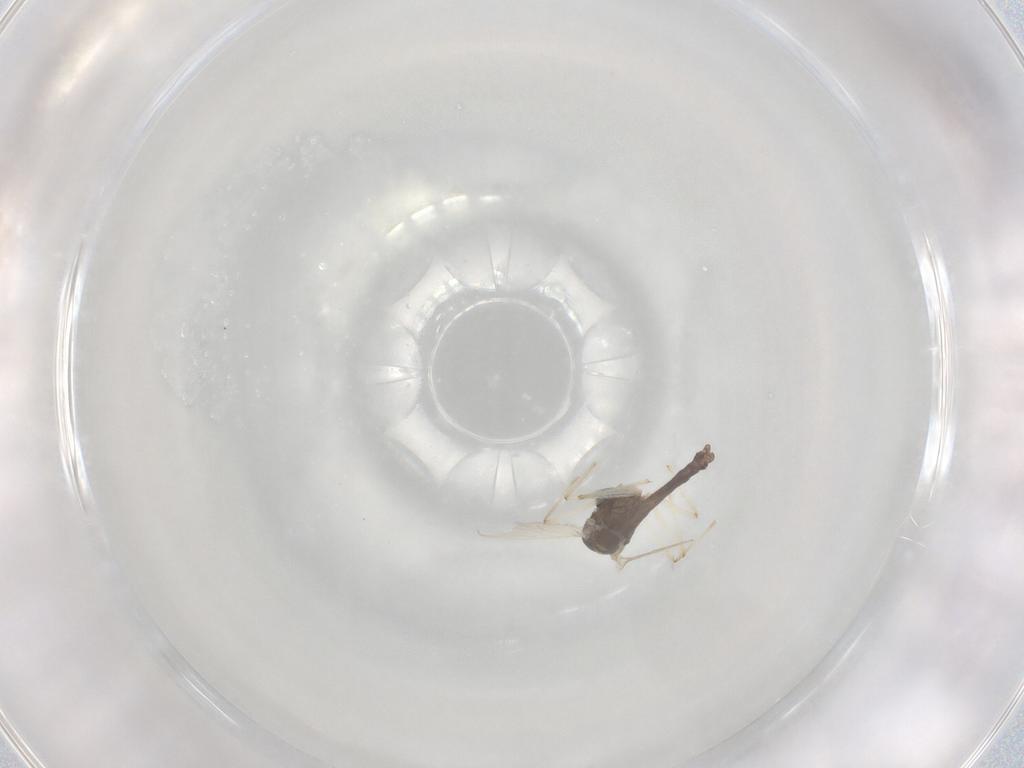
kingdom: Animalia
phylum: Arthropoda
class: Insecta
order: Diptera
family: Chironomidae
